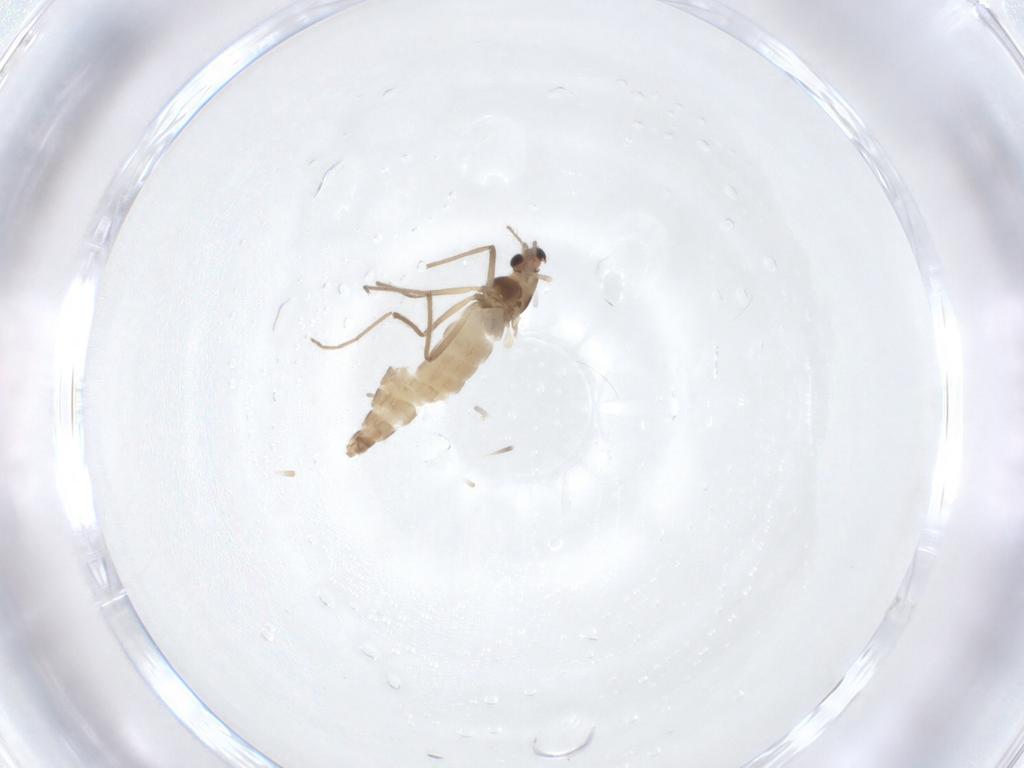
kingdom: Animalia
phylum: Arthropoda
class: Insecta
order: Diptera
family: Chironomidae
